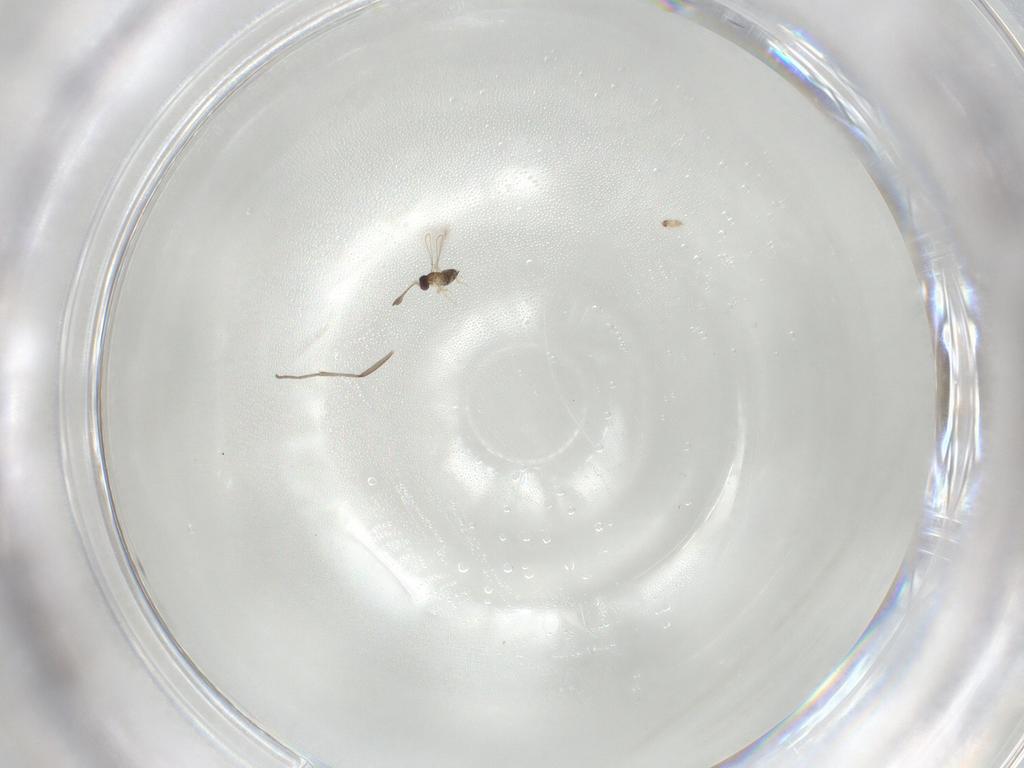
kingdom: Animalia
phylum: Arthropoda
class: Insecta
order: Diptera
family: Sciaridae
